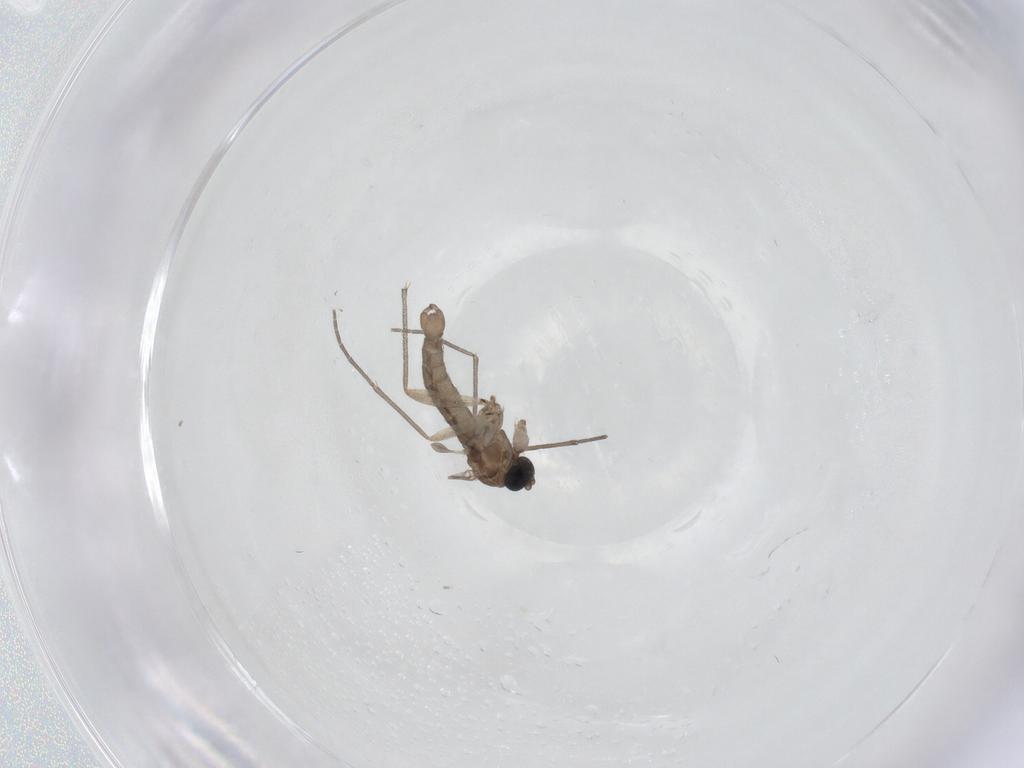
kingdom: Animalia
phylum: Arthropoda
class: Insecta
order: Diptera
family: Sciaridae
